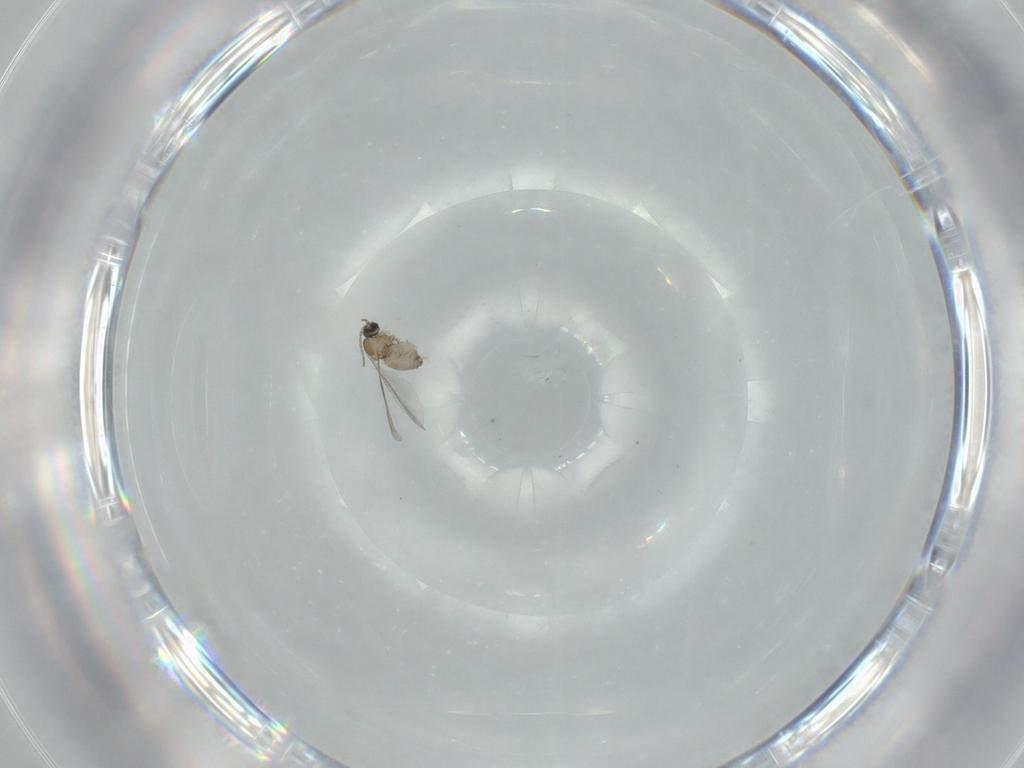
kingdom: Animalia
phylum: Arthropoda
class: Insecta
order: Diptera
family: Cecidomyiidae
